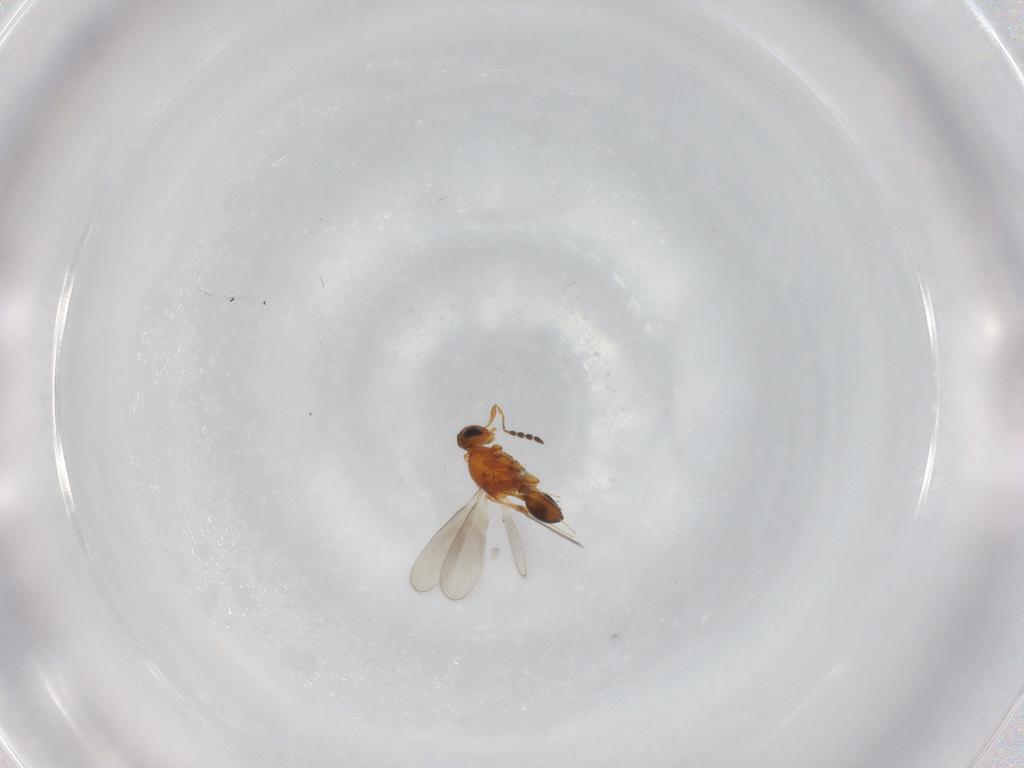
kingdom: Animalia
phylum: Arthropoda
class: Insecta
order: Hymenoptera
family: Platygastridae
